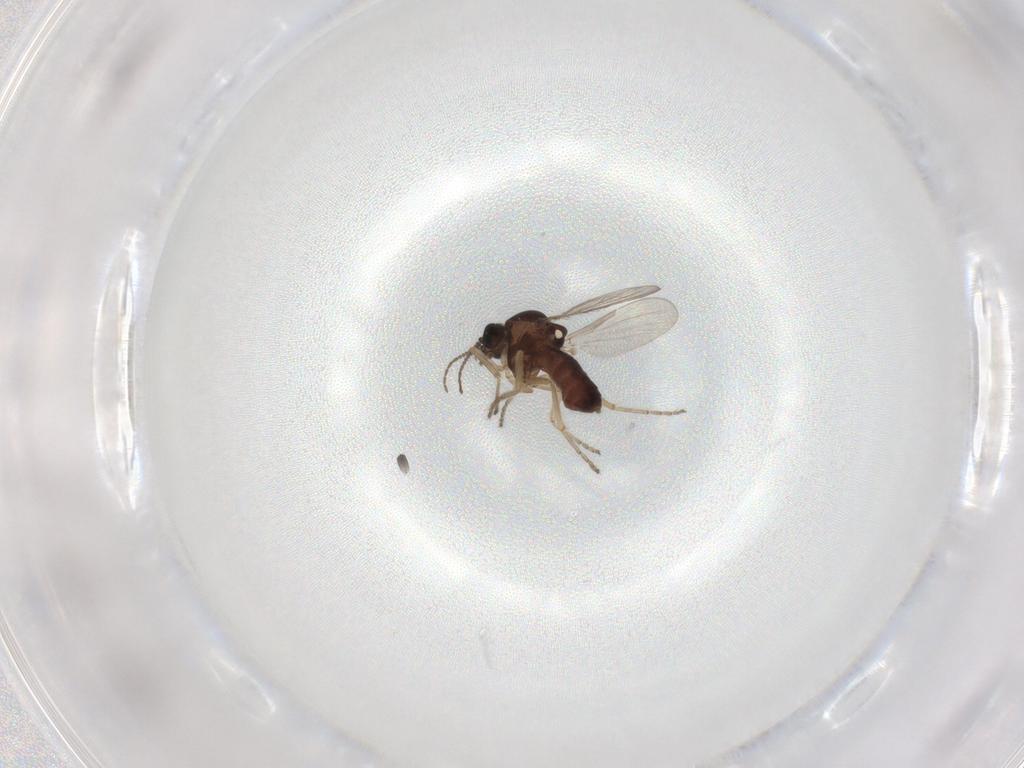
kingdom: Animalia
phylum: Arthropoda
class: Insecta
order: Diptera
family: Ceratopogonidae
